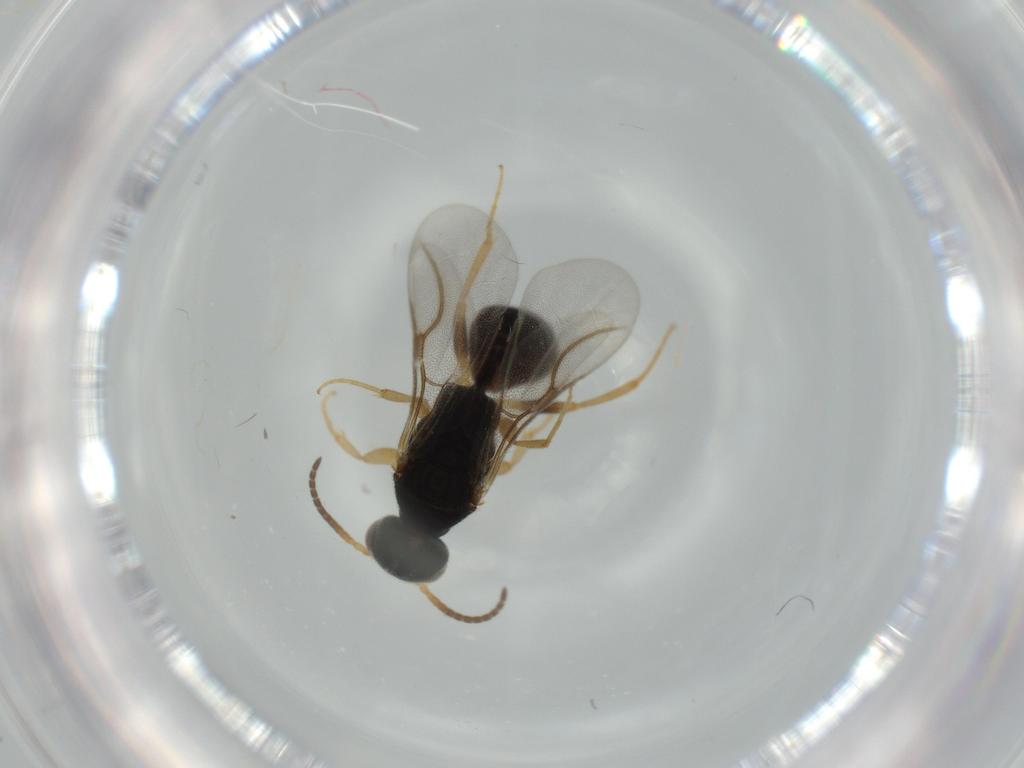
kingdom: Animalia
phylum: Arthropoda
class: Insecta
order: Hymenoptera
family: Bethylidae
